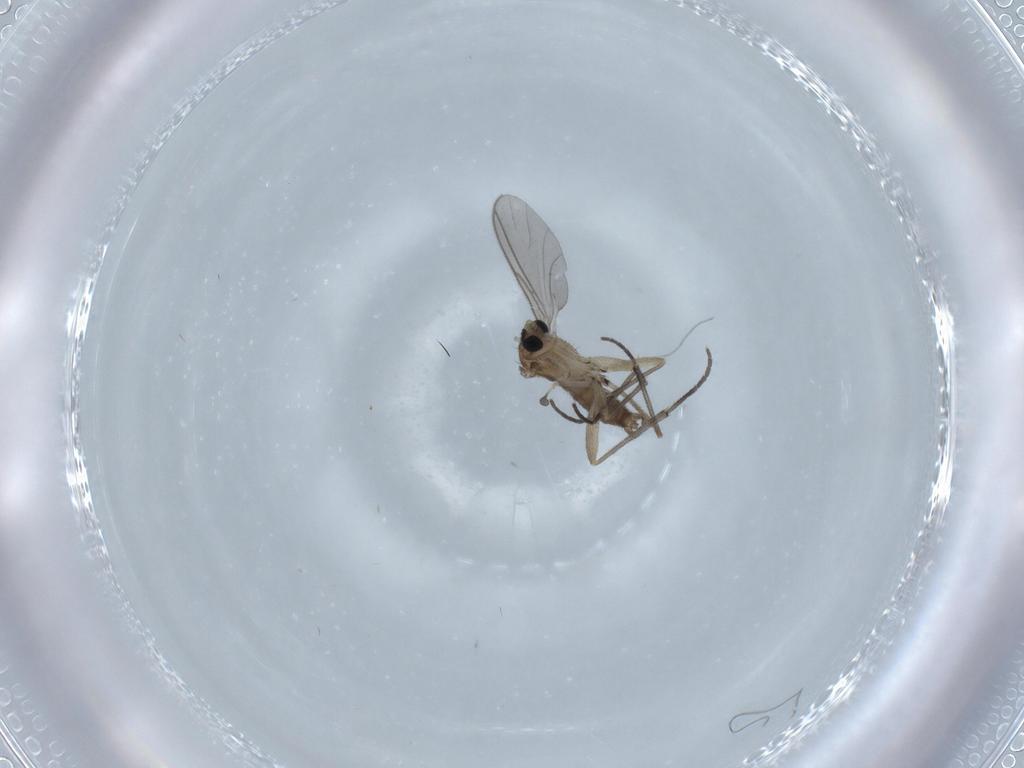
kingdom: Animalia
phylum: Arthropoda
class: Insecta
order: Diptera
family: Sciaridae
